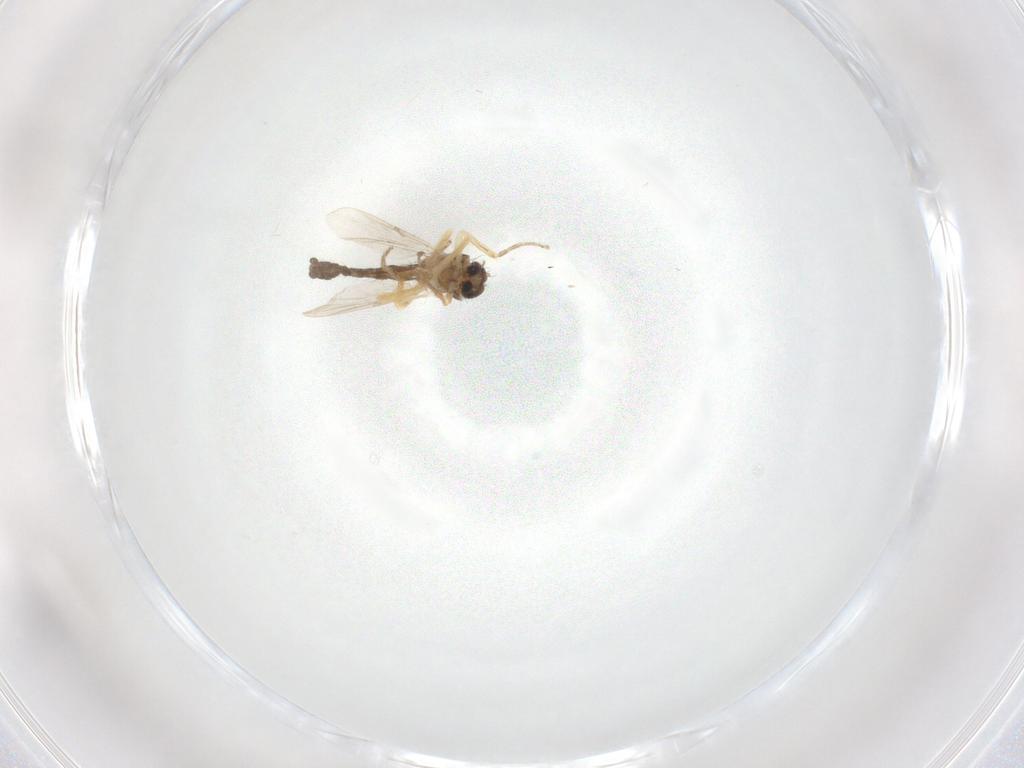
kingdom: Animalia
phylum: Arthropoda
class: Insecta
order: Diptera
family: Ceratopogonidae
